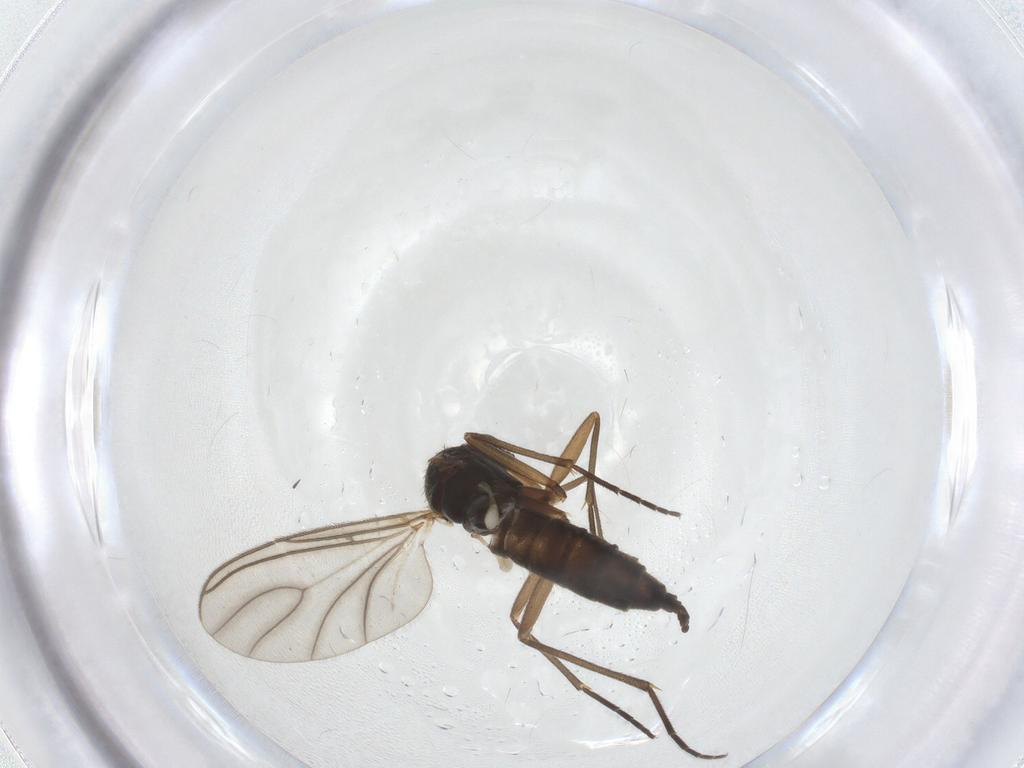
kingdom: Animalia
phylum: Arthropoda
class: Insecta
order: Diptera
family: Sciaridae
